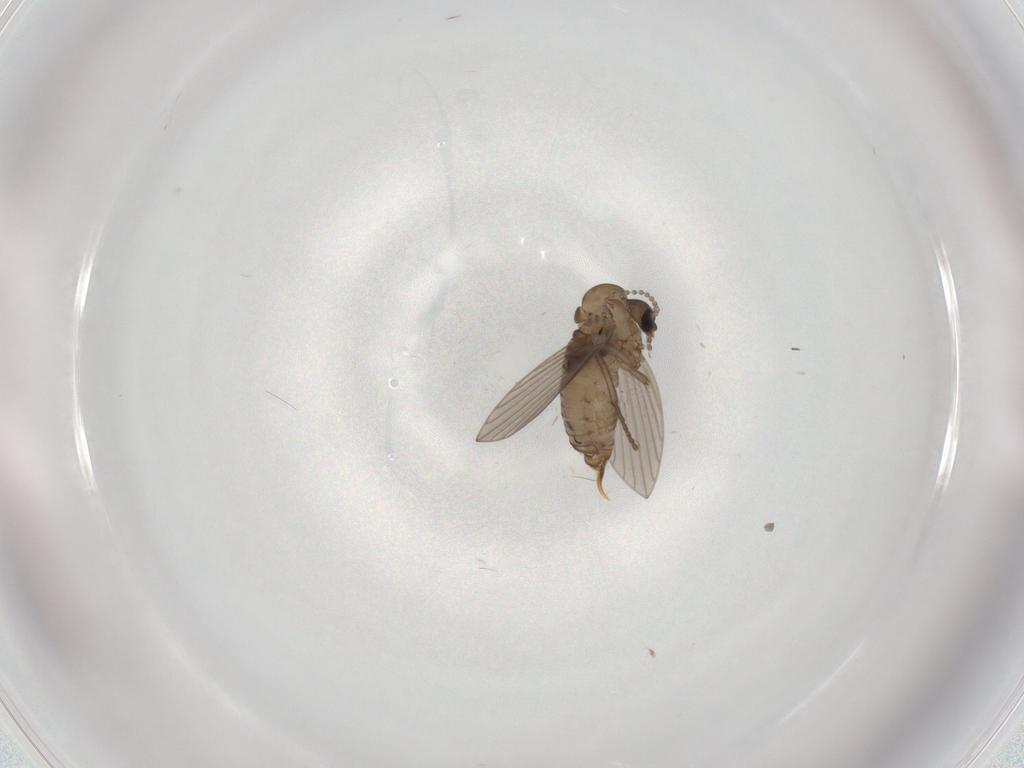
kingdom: Animalia
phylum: Arthropoda
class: Insecta
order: Diptera
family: Psychodidae
